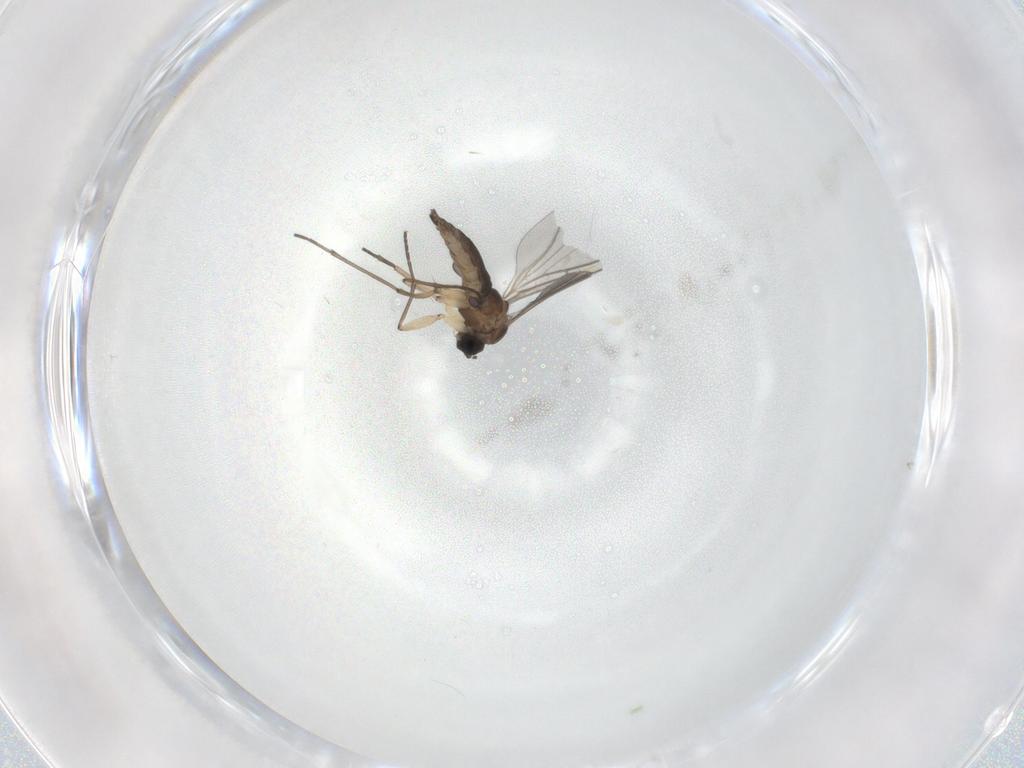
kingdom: Animalia
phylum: Arthropoda
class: Insecta
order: Diptera
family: Sciaridae
